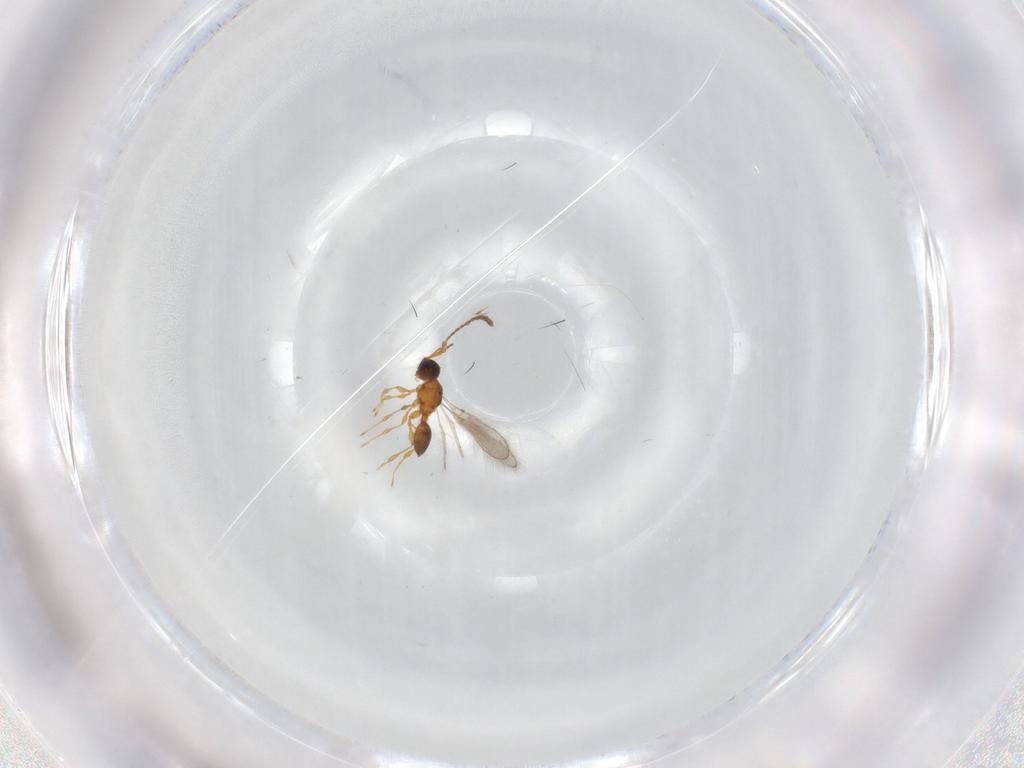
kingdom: Animalia
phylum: Arthropoda
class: Insecta
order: Hymenoptera
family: Diapriidae
